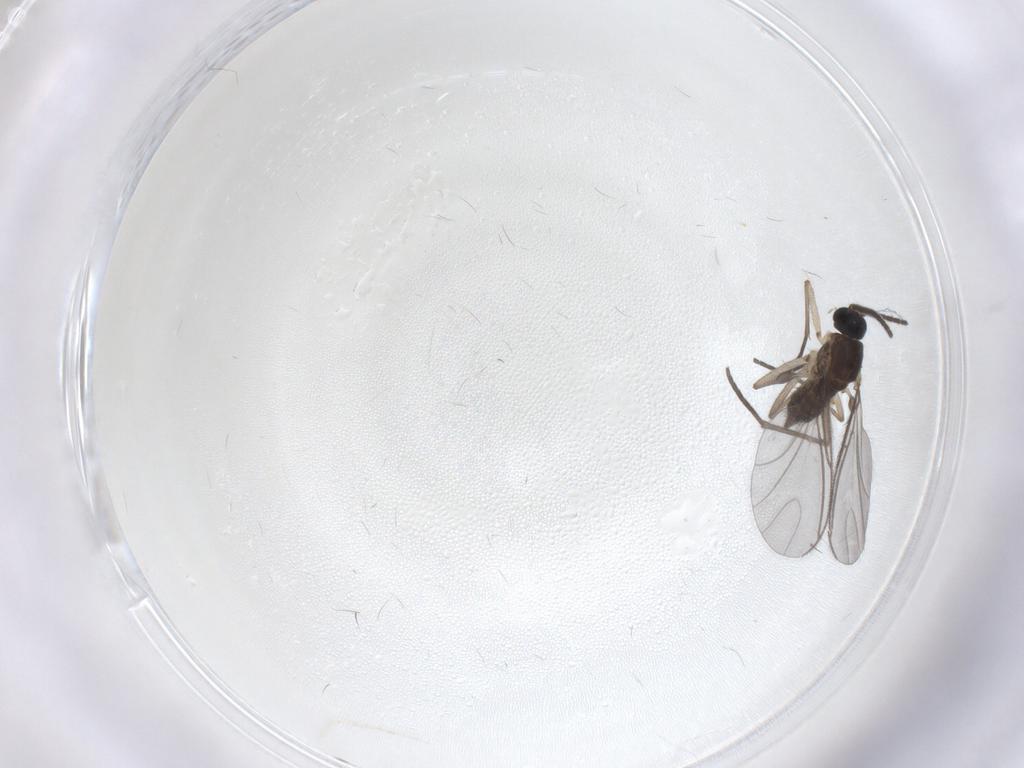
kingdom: Animalia
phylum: Arthropoda
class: Insecta
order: Diptera
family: Sciaridae
